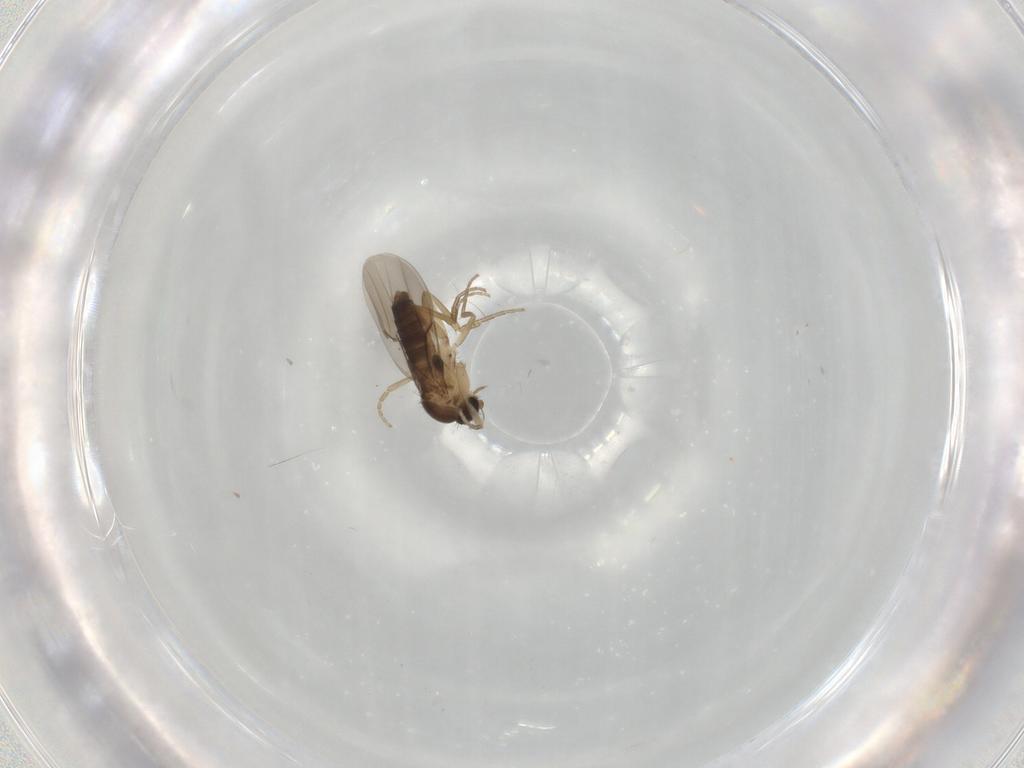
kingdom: Animalia
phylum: Arthropoda
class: Insecta
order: Diptera
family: Phoridae
